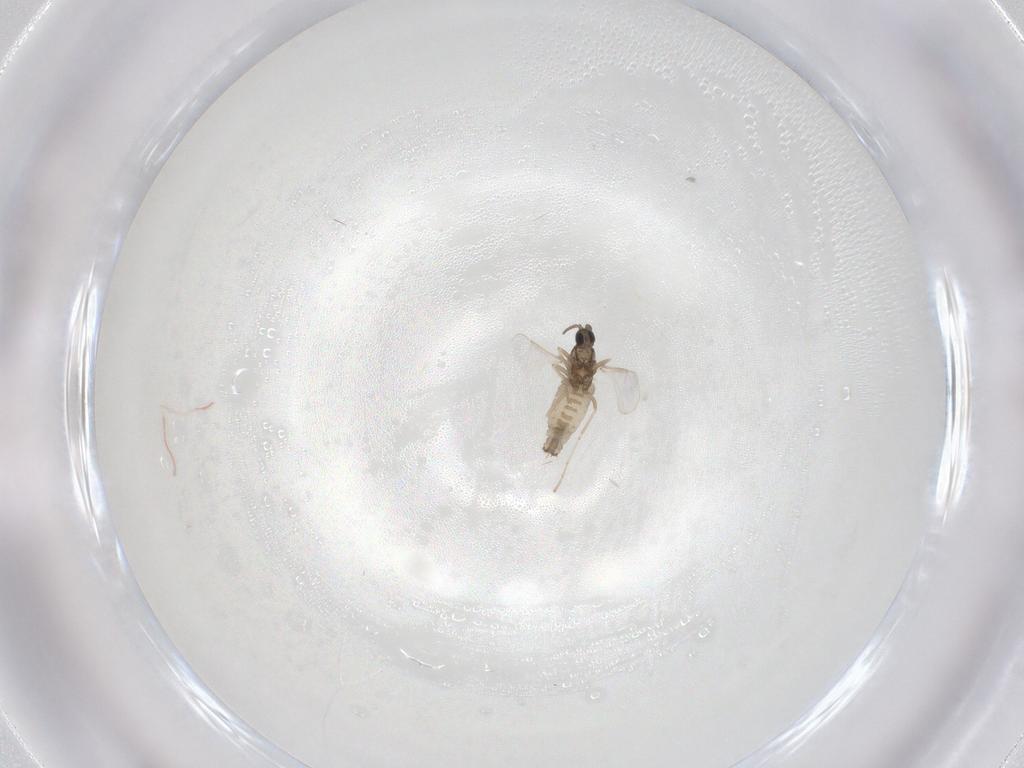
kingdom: Animalia
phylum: Arthropoda
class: Insecta
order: Diptera
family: Cecidomyiidae
